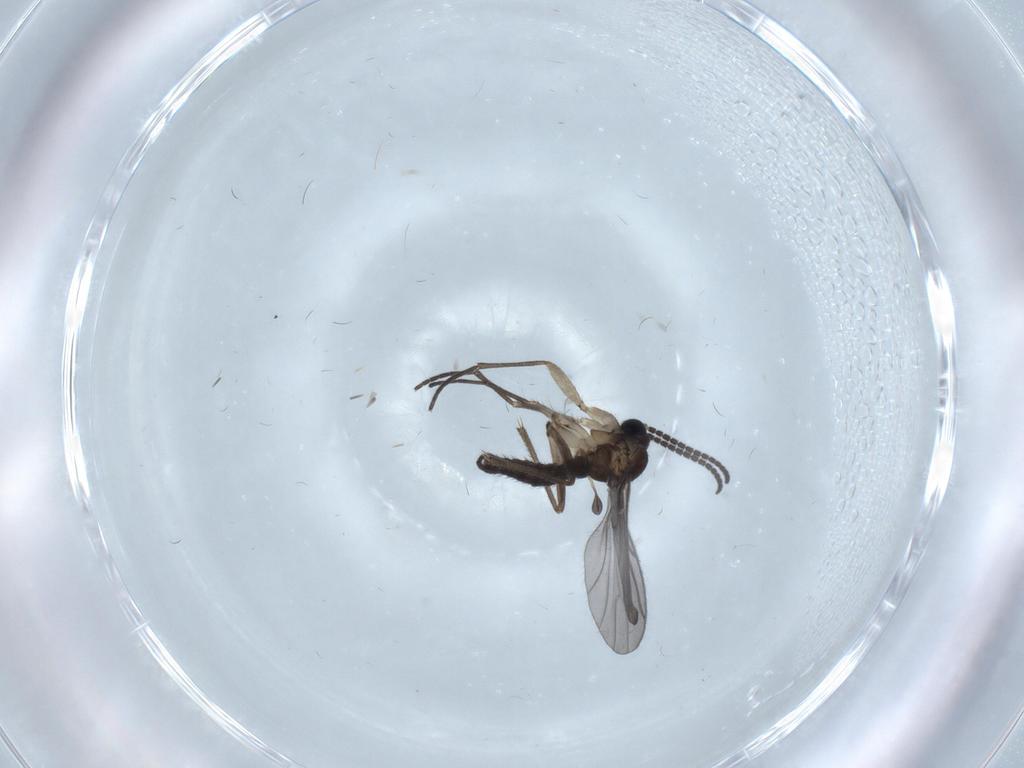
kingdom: Animalia
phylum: Arthropoda
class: Insecta
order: Diptera
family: Sciaridae
